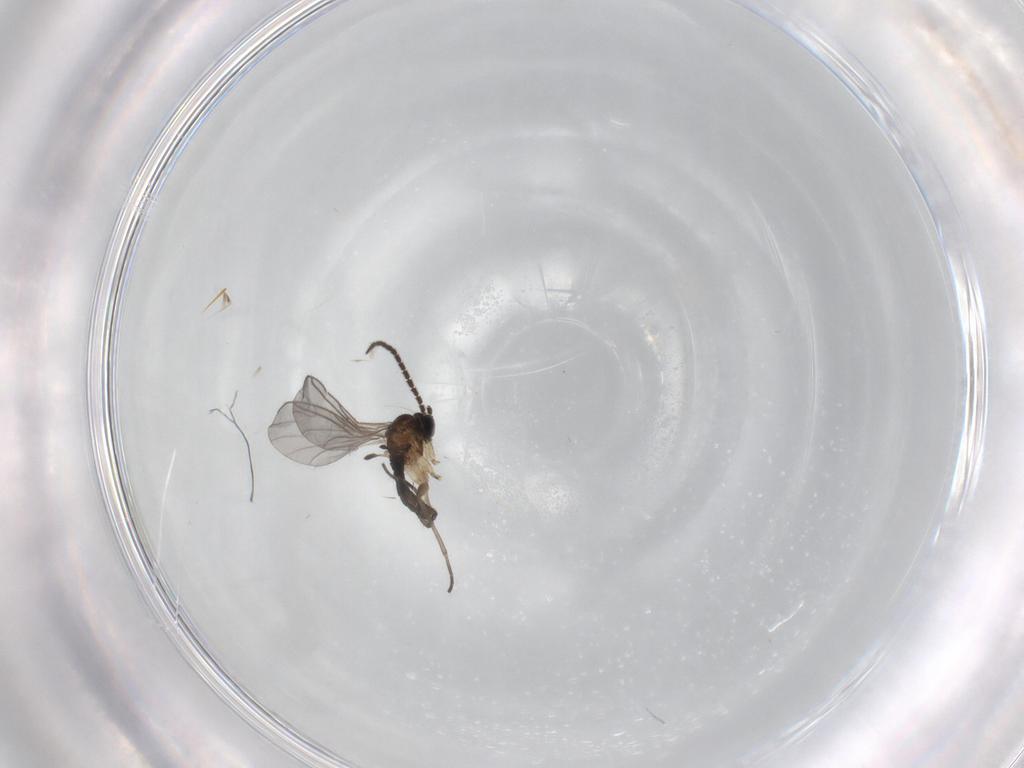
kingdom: Animalia
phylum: Arthropoda
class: Insecta
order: Diptera
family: Sciaridae
